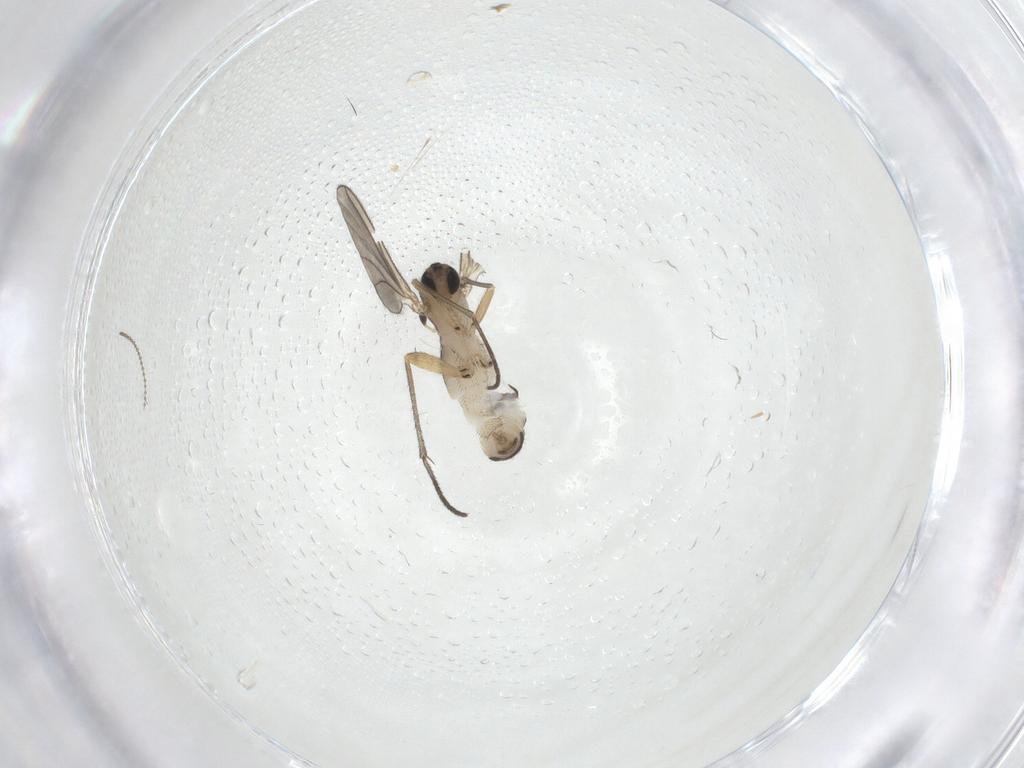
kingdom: Animalia
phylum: Arthropoda
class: Insecta
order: Diptera
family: Sciaridae
